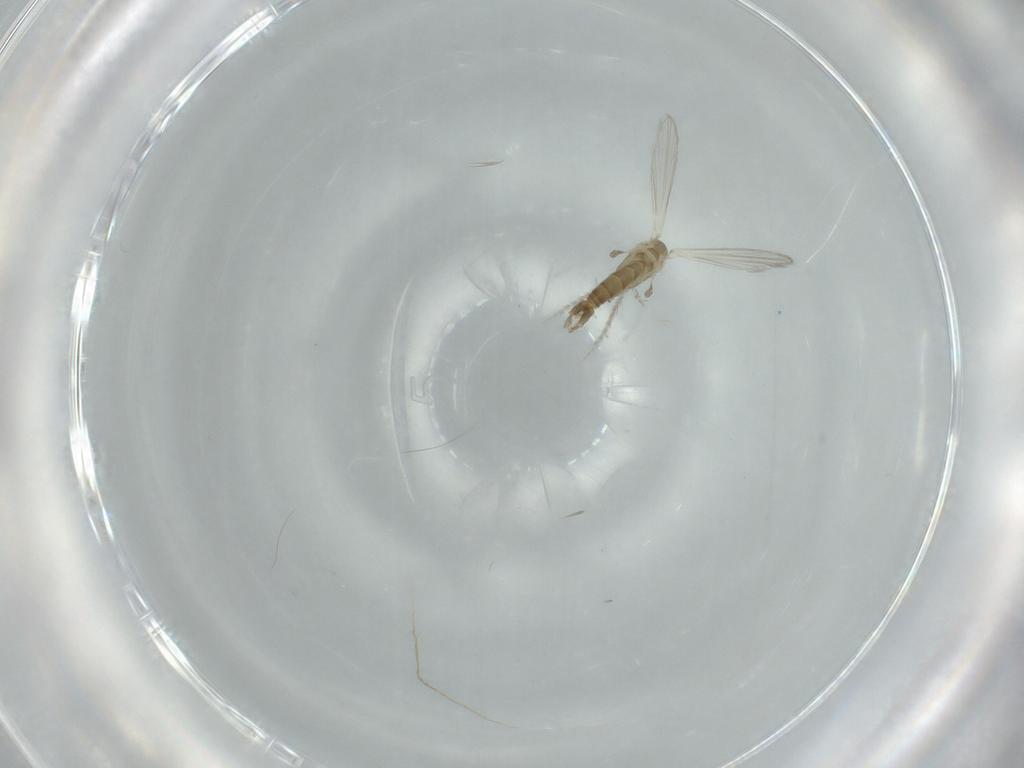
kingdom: Animalia
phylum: Arthropoda
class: Insecta
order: Diptera
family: Psychodidae
